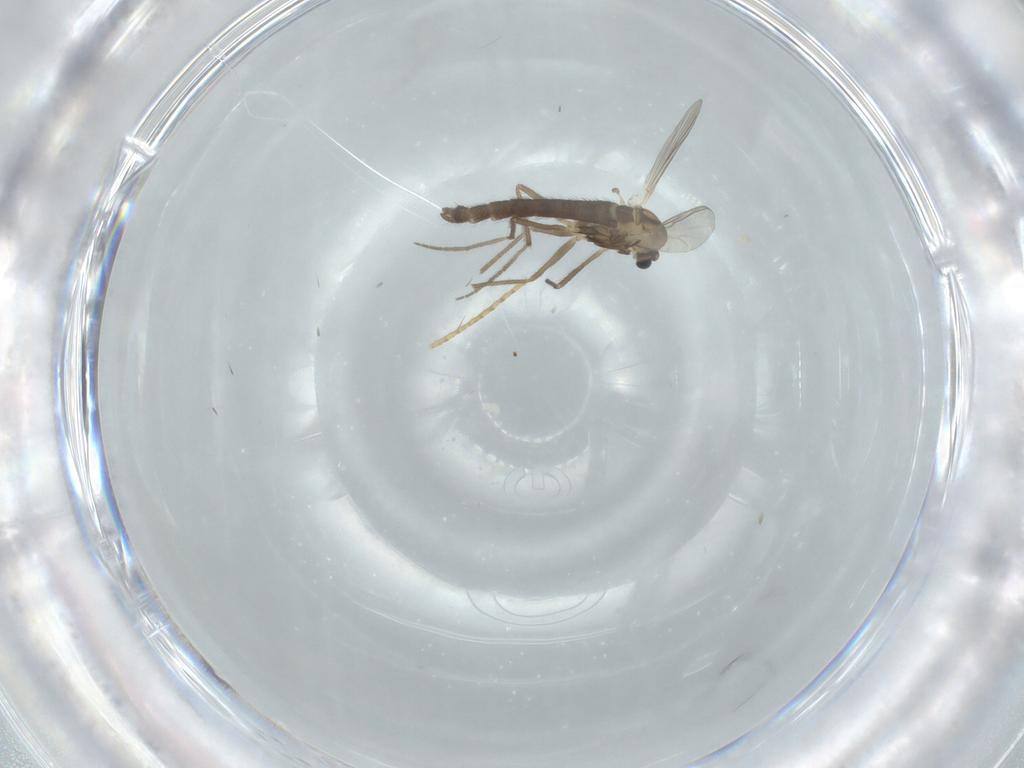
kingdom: Animalia
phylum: Arthropoda
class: Insecta
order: Diptera
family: Chironomidae
